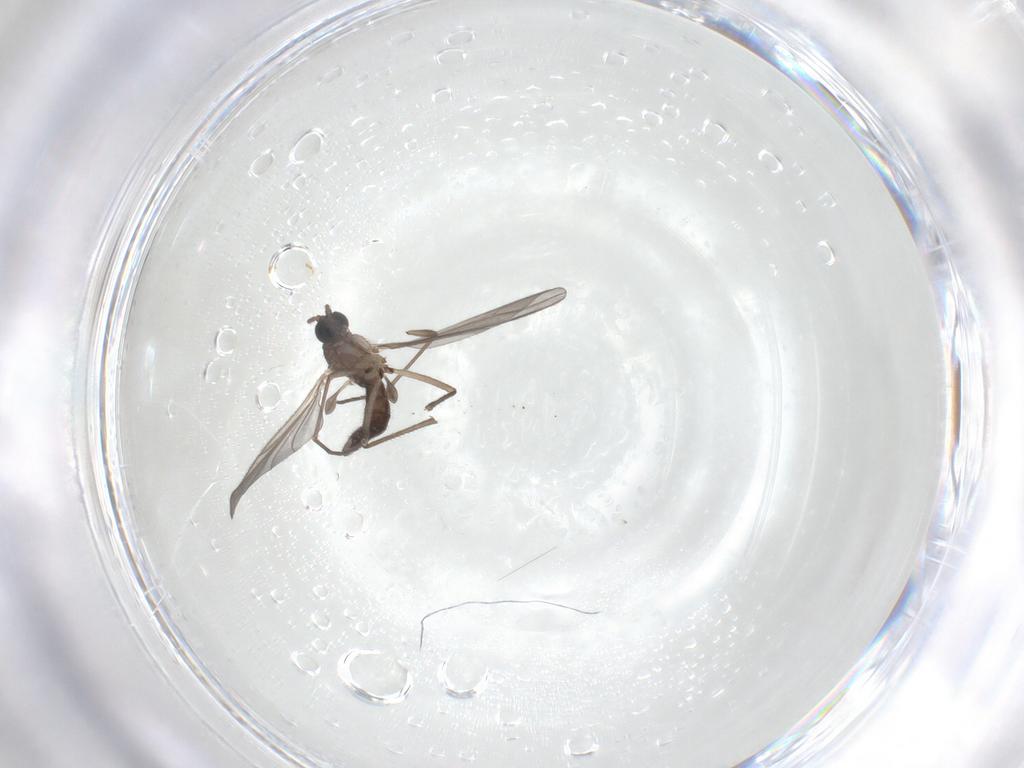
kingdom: Animalia
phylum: Arthropoda
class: Insecta
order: Diptera
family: Sciaridae
